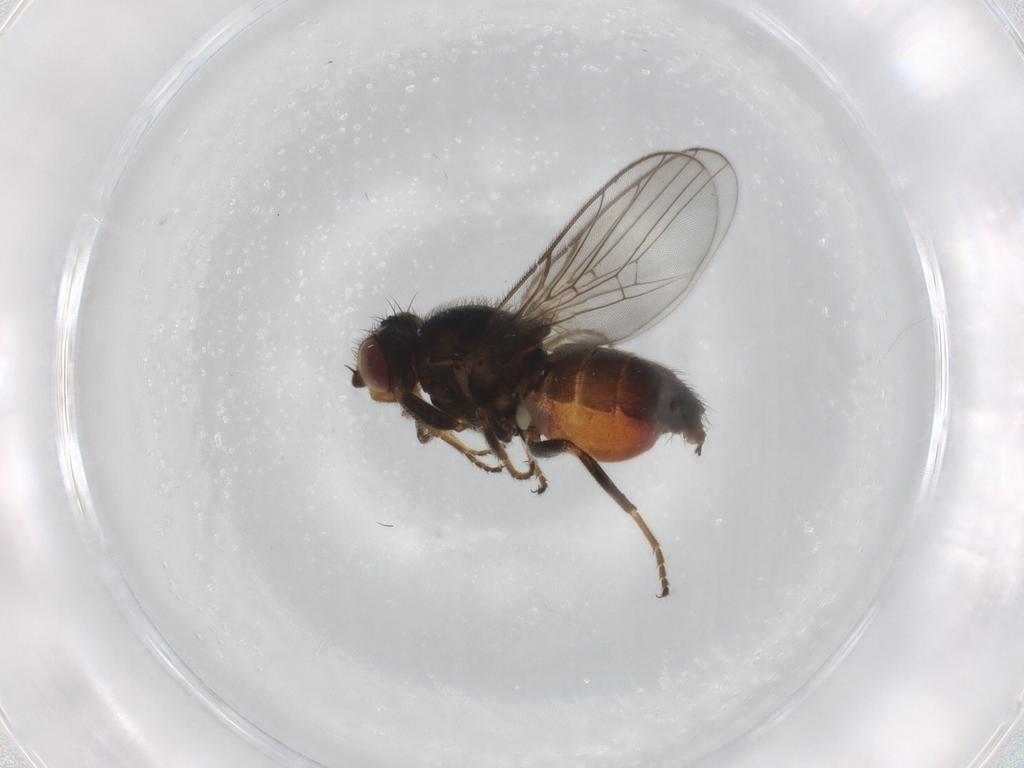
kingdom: Animalia
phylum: Arthropoda
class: Insecta
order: Diptera
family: Chloropidae
